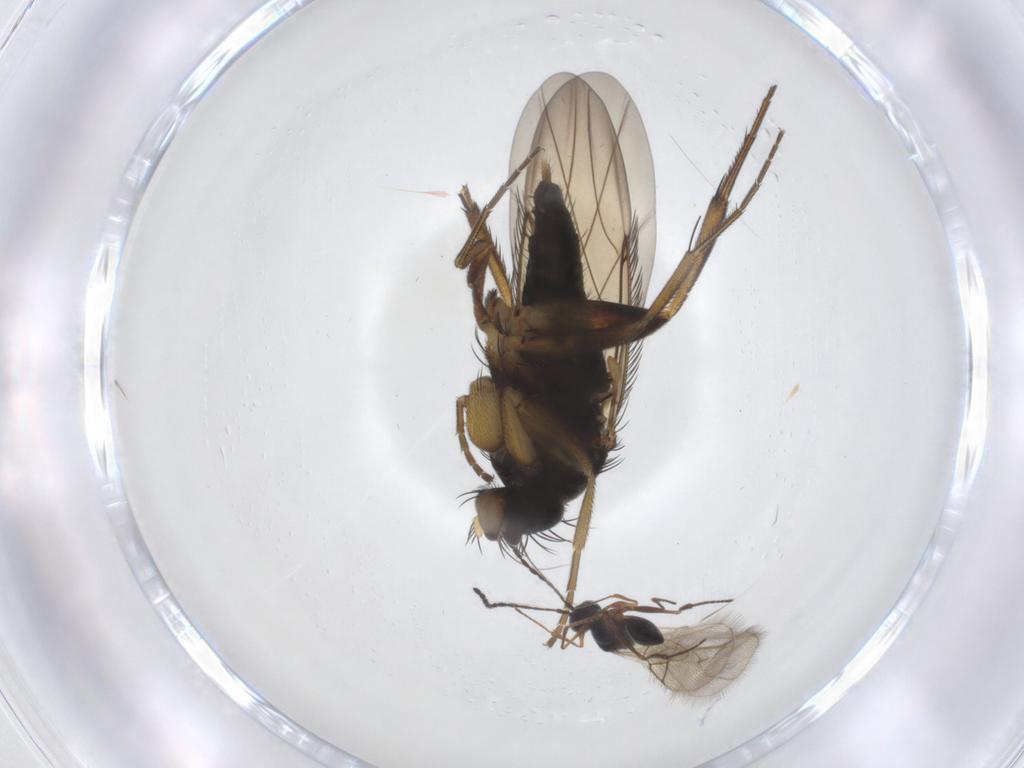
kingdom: Animalia
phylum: Arthropoda
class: Insecta
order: Diptera
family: Phoridae
